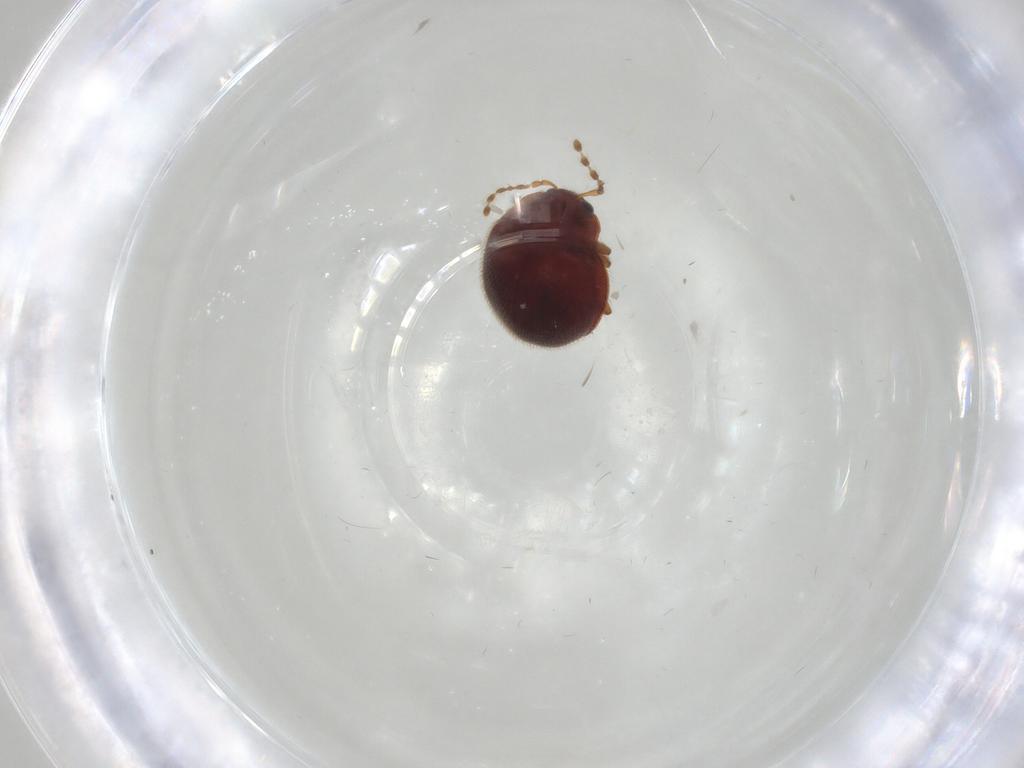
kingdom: Animalia
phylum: Arthropoda
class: Insecta
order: Coleoptera
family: Anamorphidae
